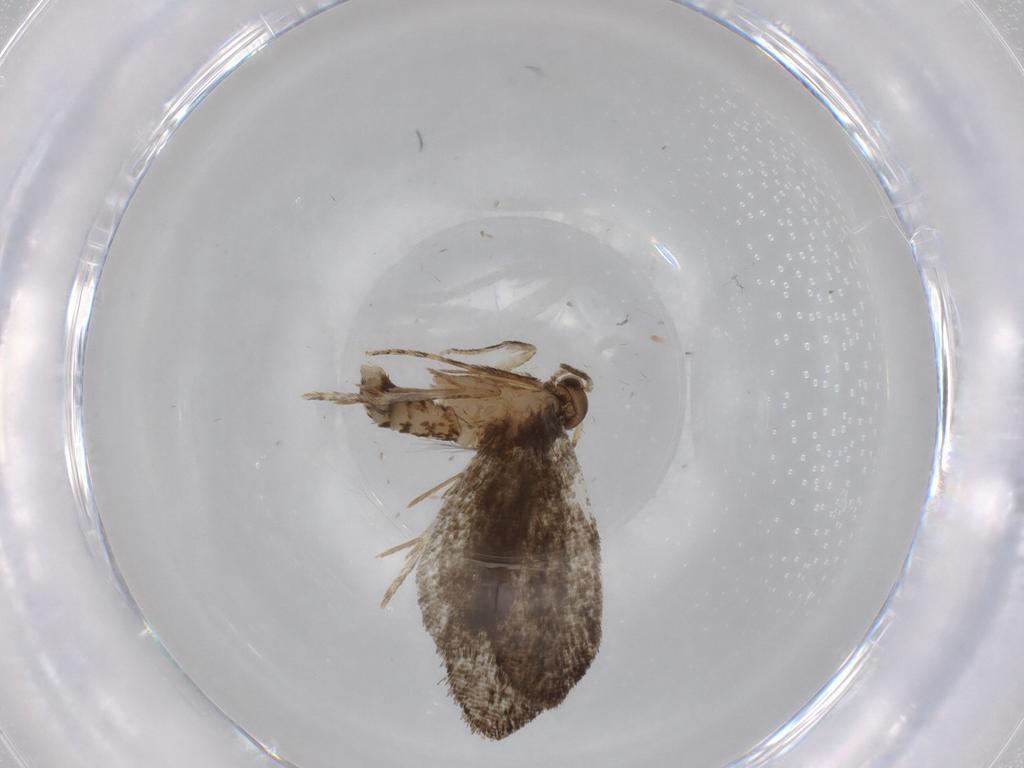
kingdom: Animalia
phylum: Arthropoda
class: Insecta
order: Lepidoptera
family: Tineidae
